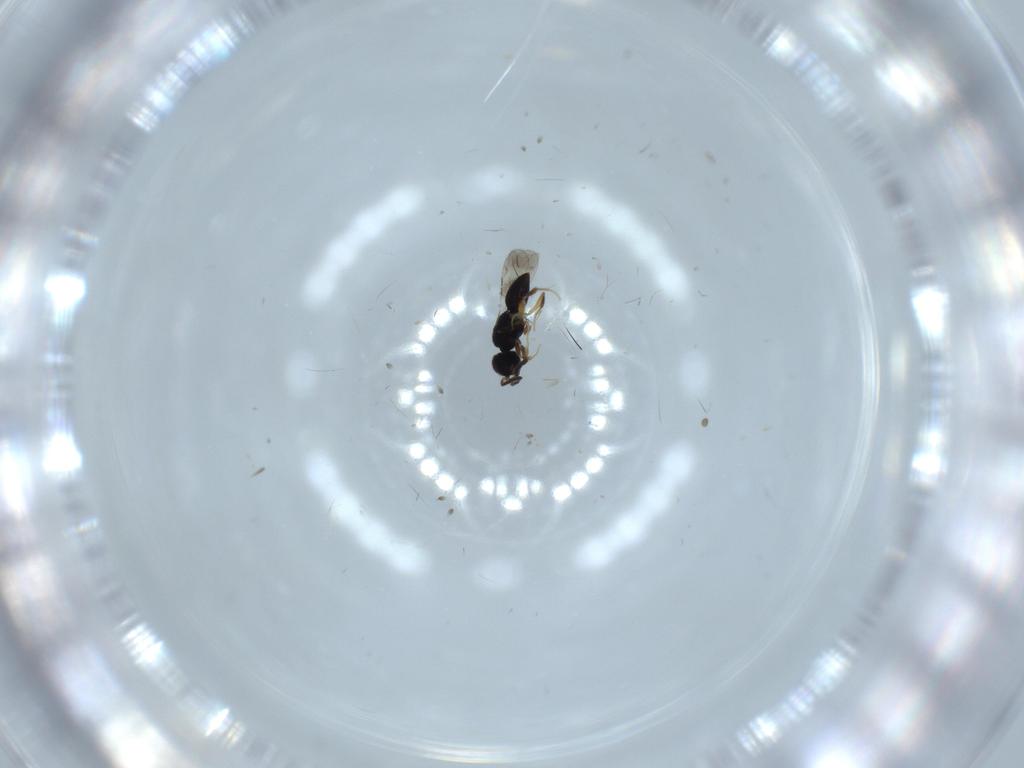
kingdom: Animalia
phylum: Arthropoda
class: Insecta
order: Hymenoptera
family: Scelionidae
